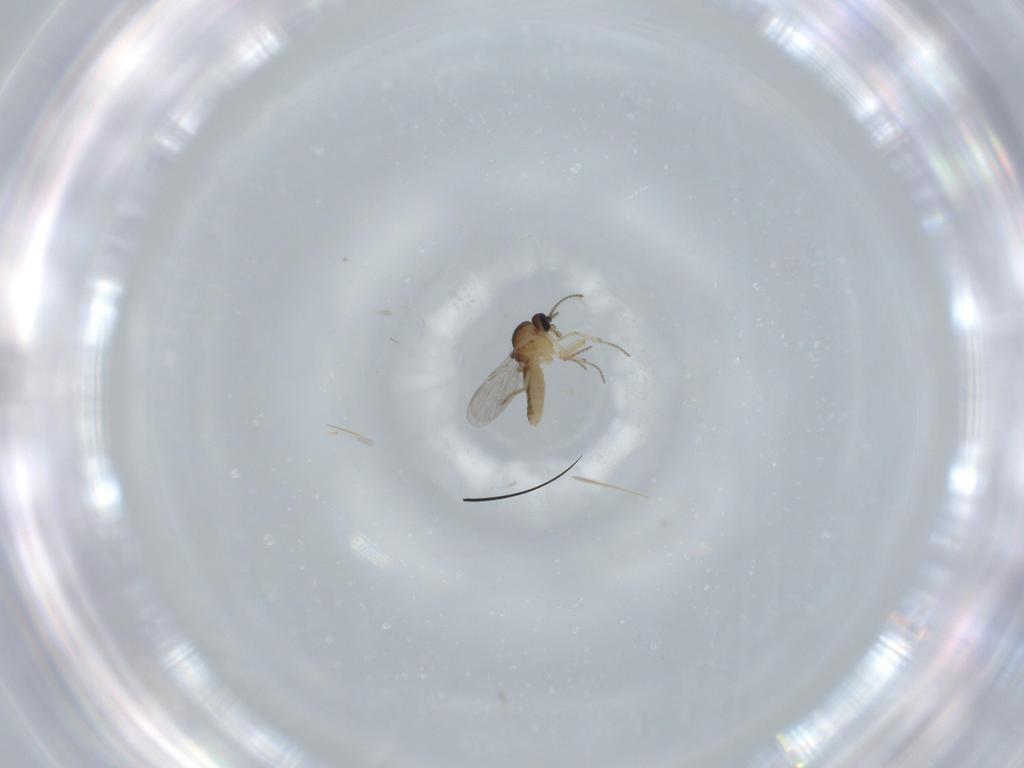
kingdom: Animalia
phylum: Arthropoda
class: Insecta
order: Diptera
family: Ceratopogonidae
